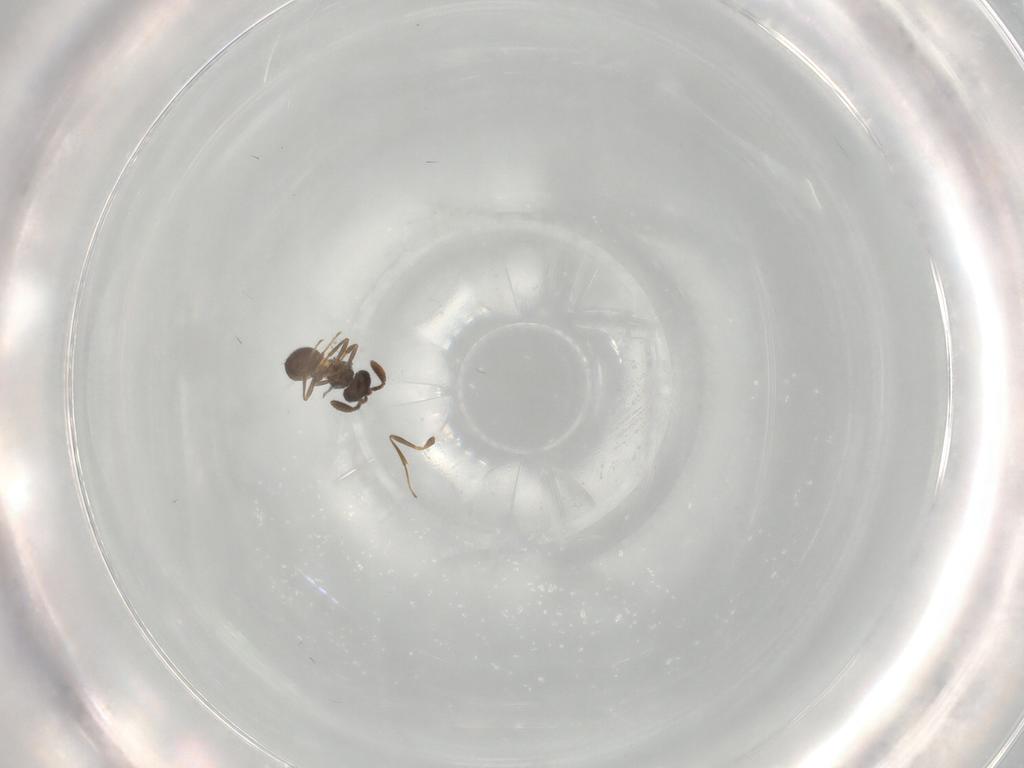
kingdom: Animalia
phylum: Arthropoda
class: Insecta
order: Hymenoptera
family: Scelionidae
